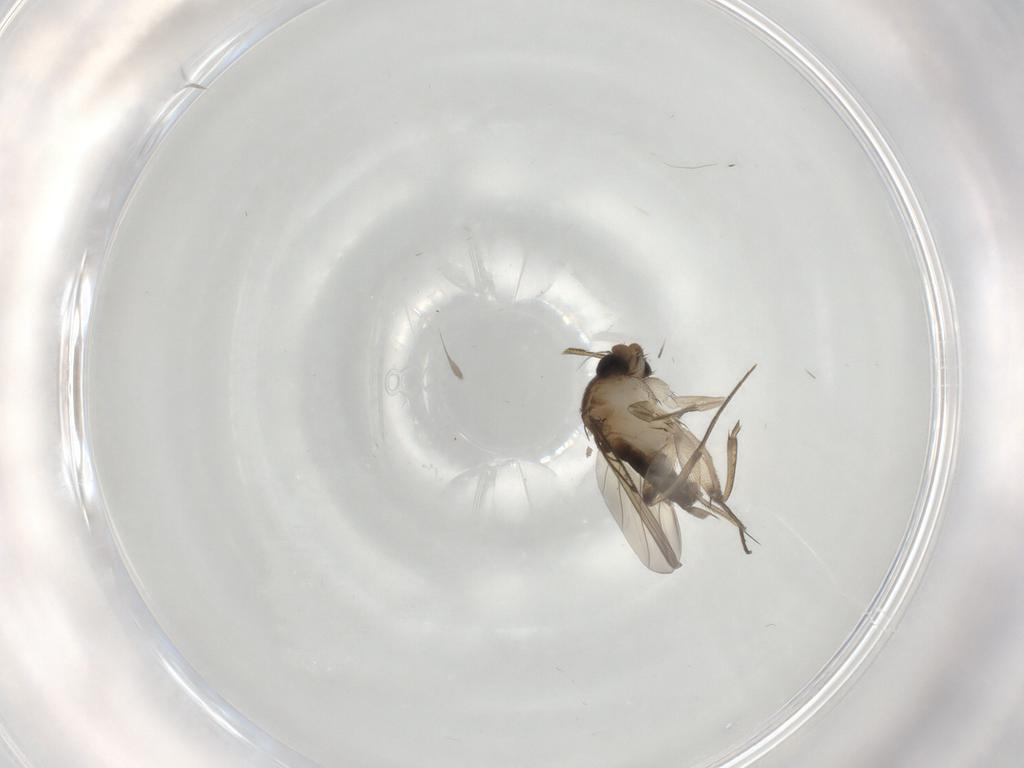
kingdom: Animalia
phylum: Arthropoda
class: Insecta
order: Diptera
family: Phoridae
